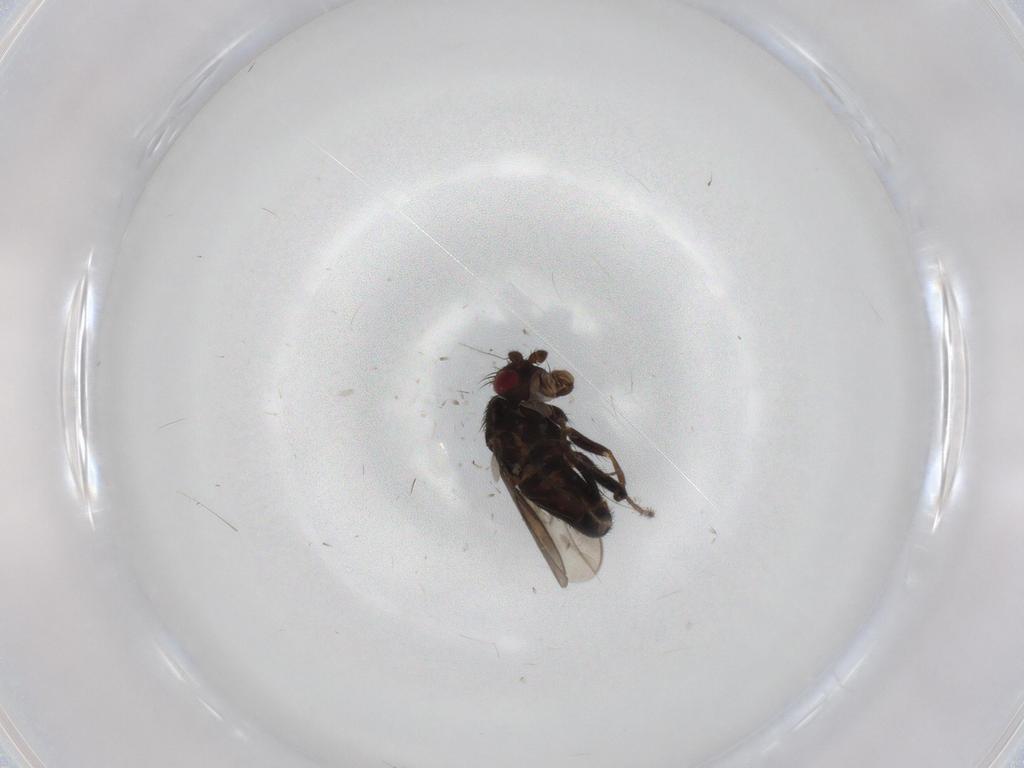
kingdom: Animalia
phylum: Arthropoda
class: Insecta
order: Diptera
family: Sphaeroceridae
